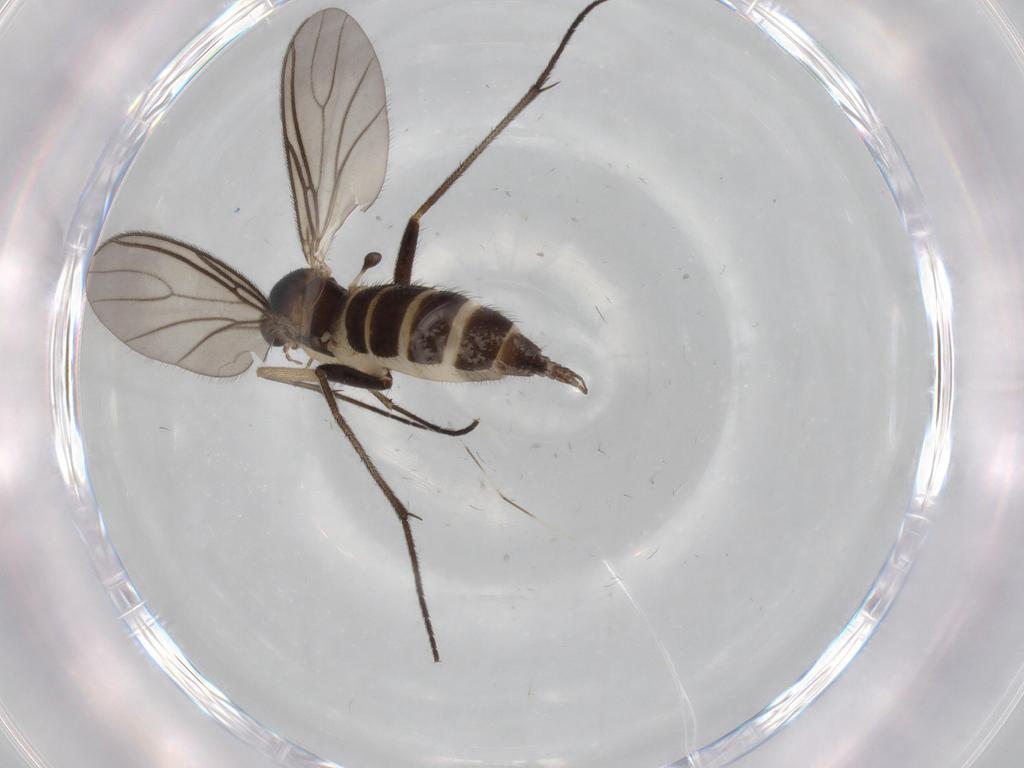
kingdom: Animalia
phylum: Arthropoda
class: Insecta
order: Diptera
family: Sciaridae
